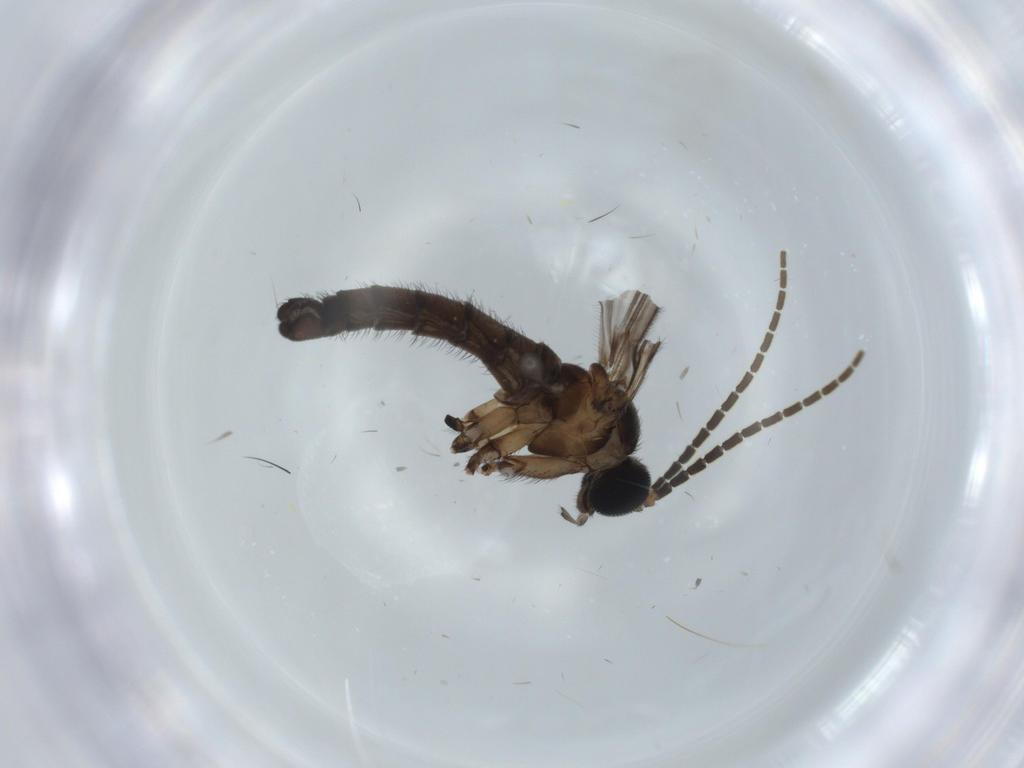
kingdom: Animalia
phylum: Arthropoda
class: Insecta
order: Diptera
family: Cecidomyiidae
